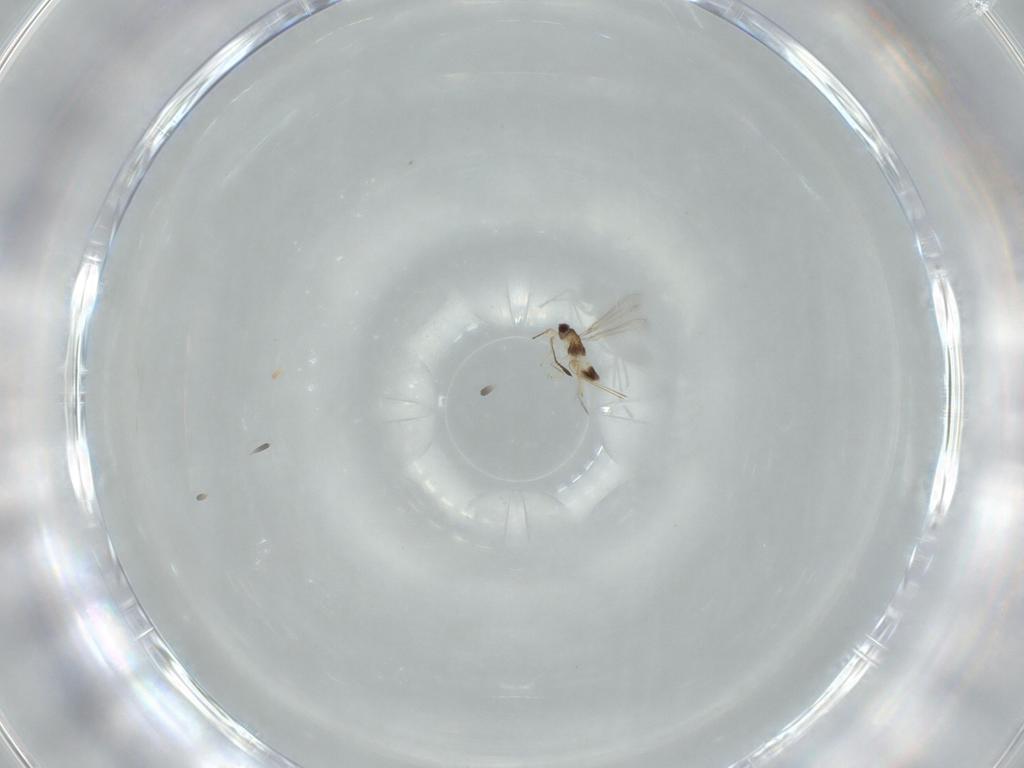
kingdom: Animalia
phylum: Arthropoda
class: Insecta
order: Hymenoptera
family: Mymaridae
